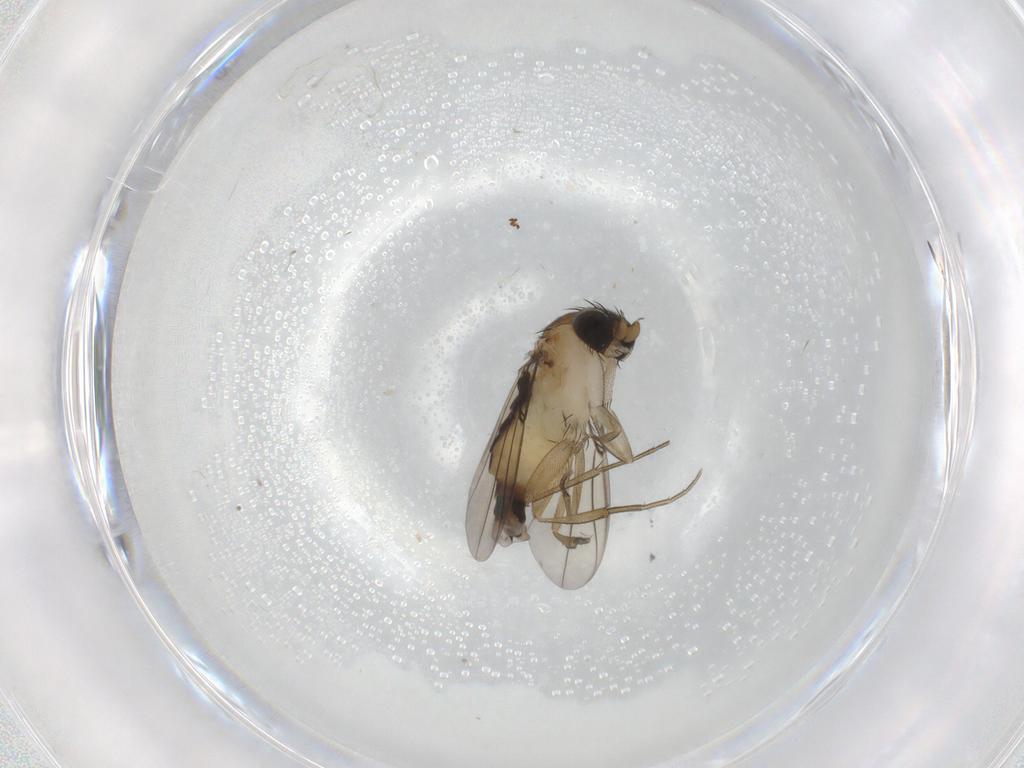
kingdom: Animalia
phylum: Arthropoda
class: Insecta
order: Diptera
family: Phoridae
